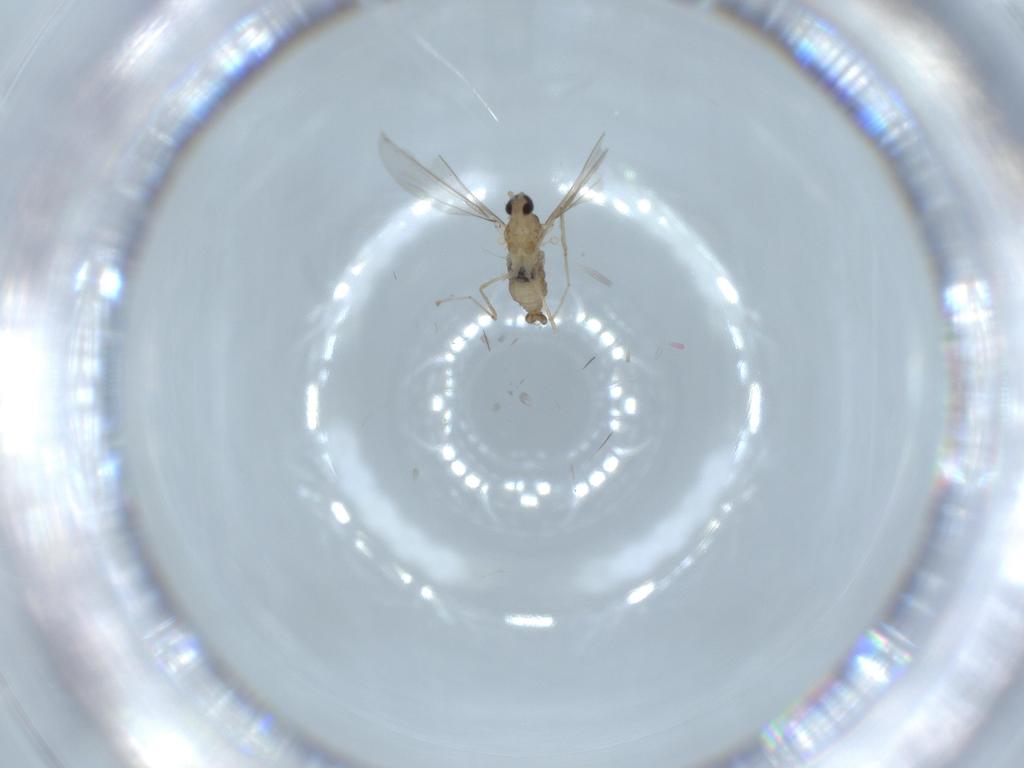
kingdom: Animalia
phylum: Arthropoda
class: Insecta
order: Diptera
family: Cecidomyiidae
